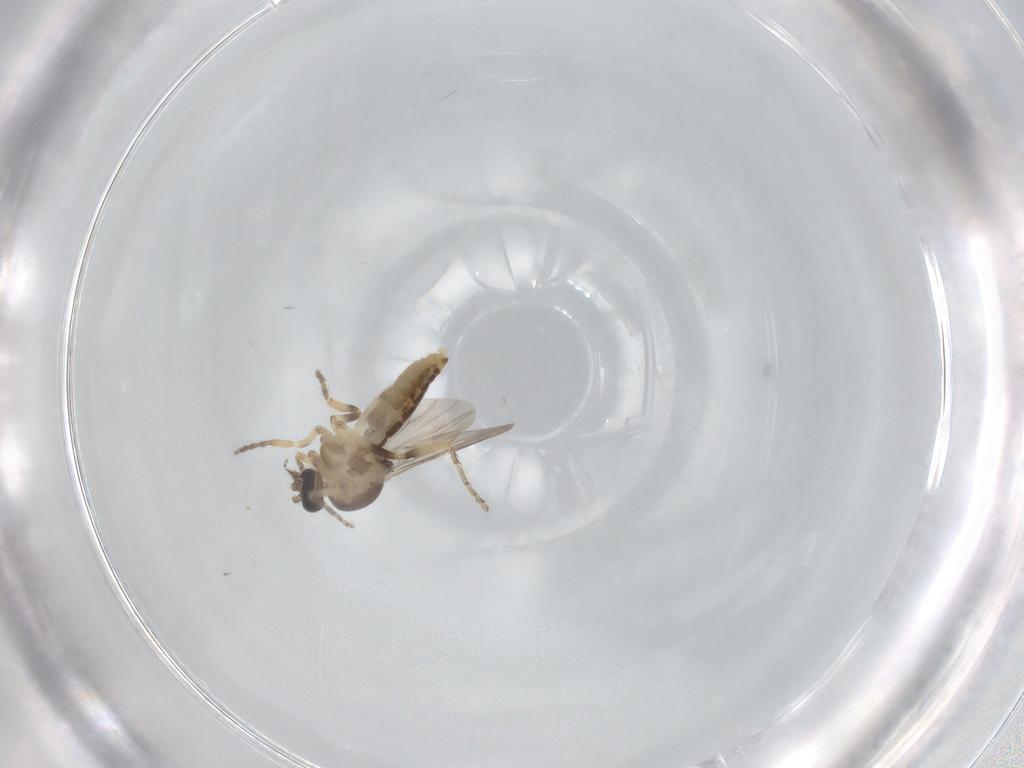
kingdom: Animalia
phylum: Arthropoda
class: Insecta
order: Diptera
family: Ceratopogonidae
